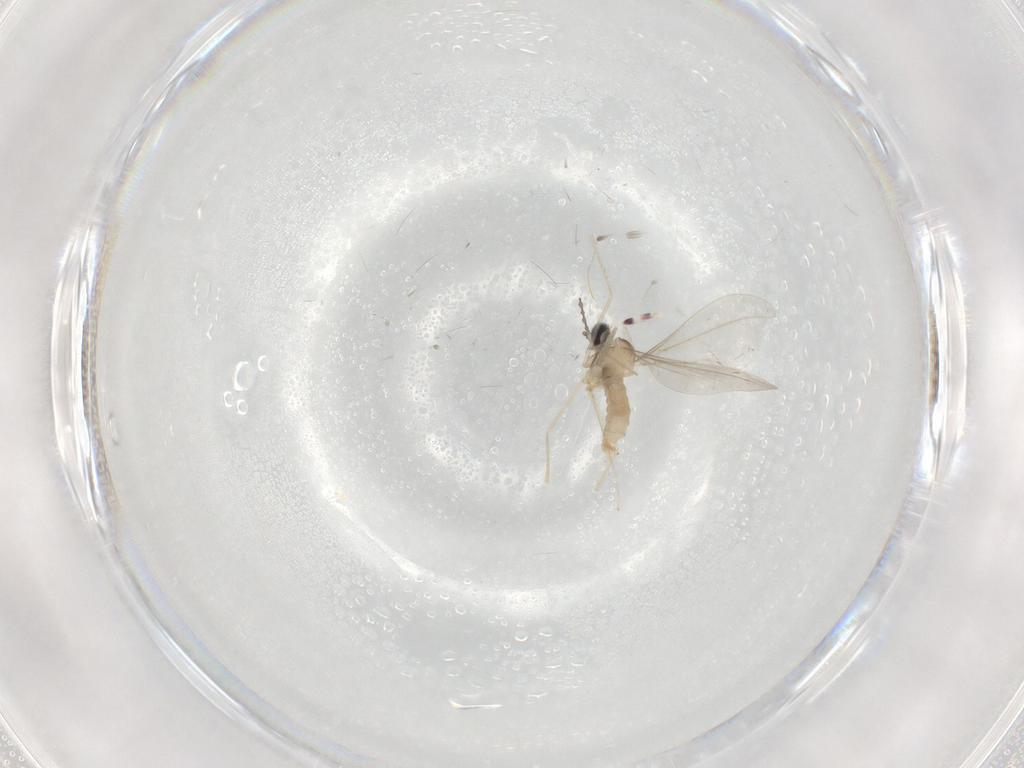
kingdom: Animalia
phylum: Arthropoda
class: Insecta
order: Diptera
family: Cecidomyiidae
